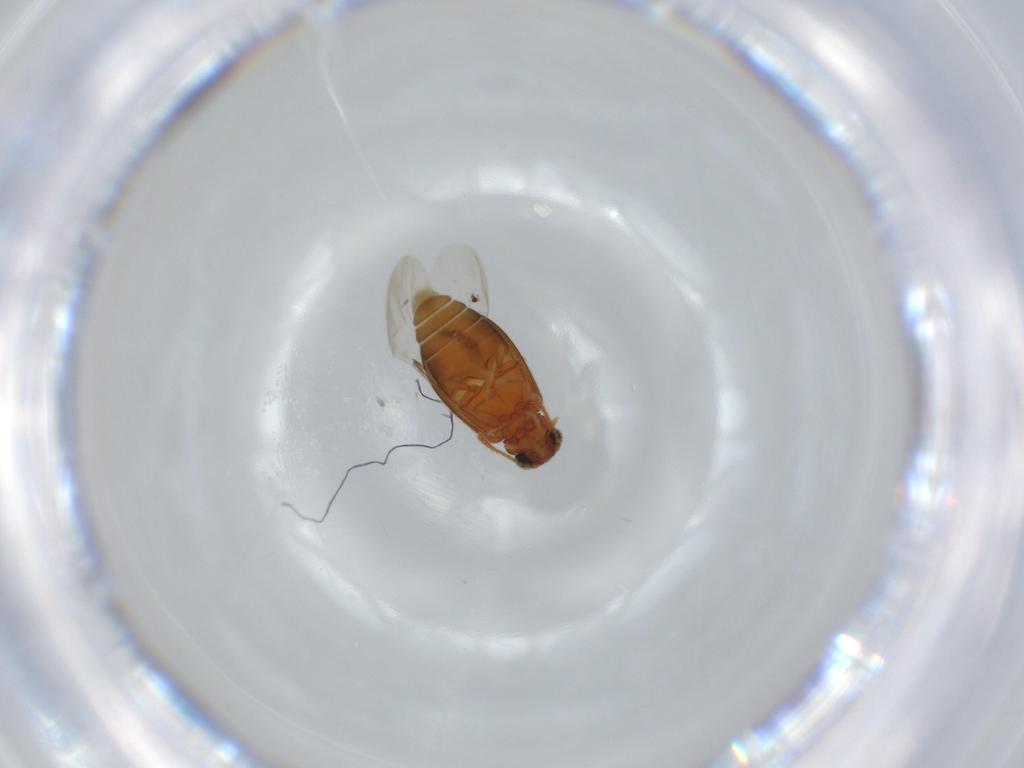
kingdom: Animalia
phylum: Arthropoda
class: Insecta
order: Coleoptera
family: Aderidae
